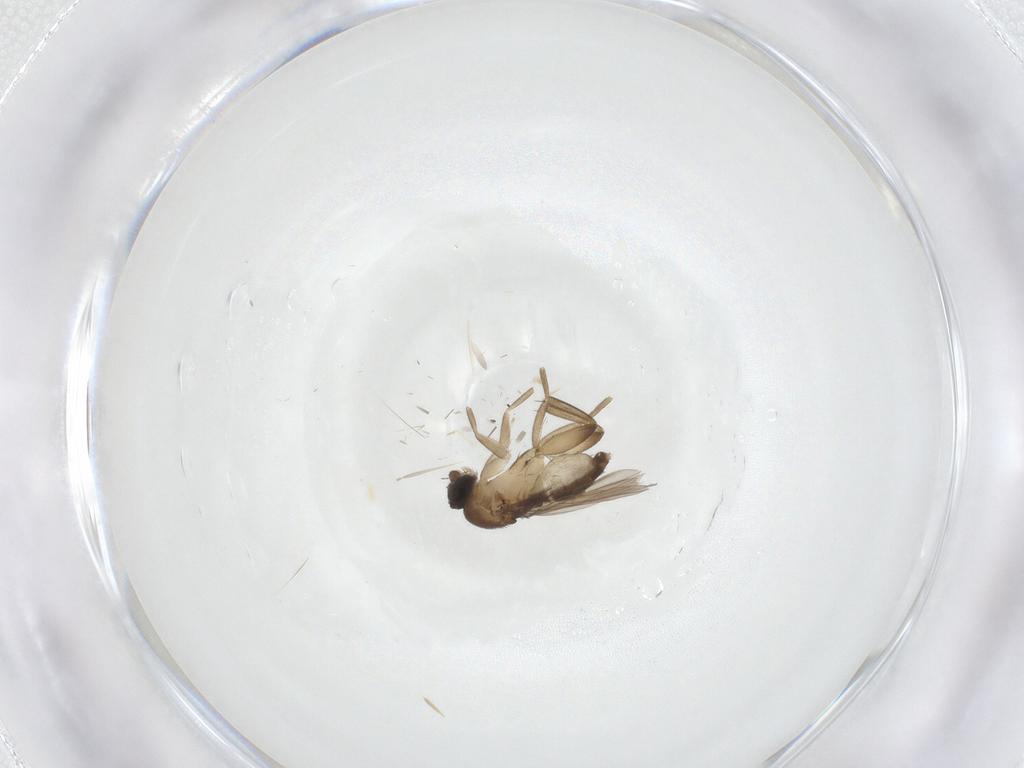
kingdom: Animalia
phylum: Arthropoda
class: Insecta
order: Diptera
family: Phoridae
